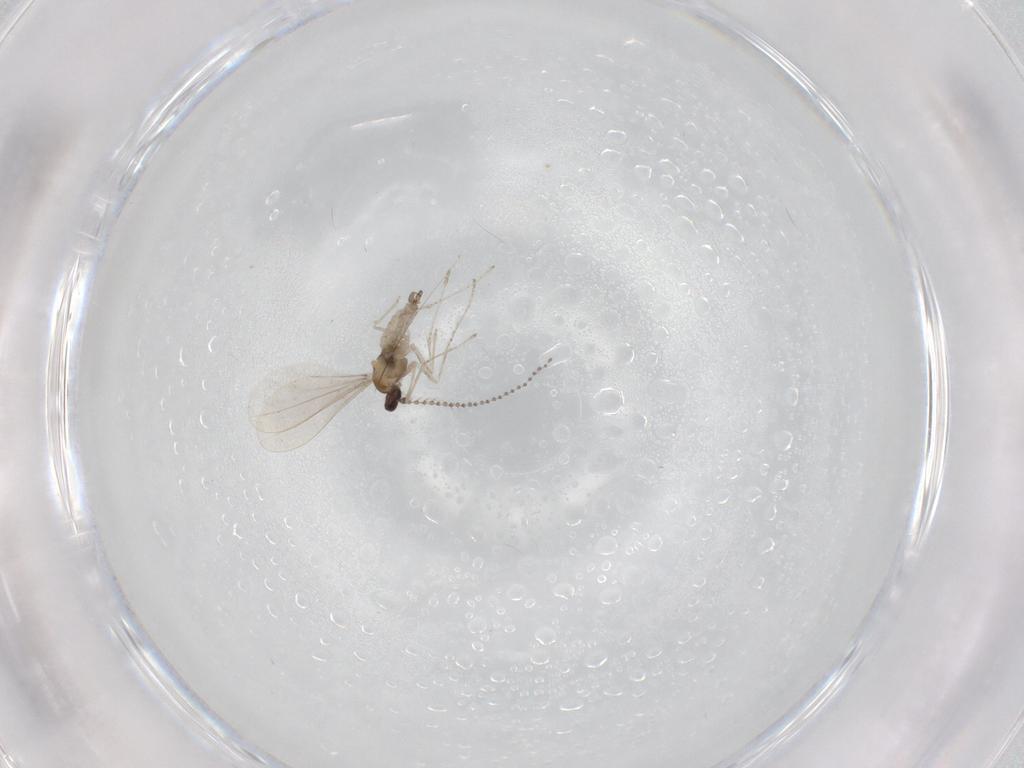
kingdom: Animalia
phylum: Arthropoda
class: Insecta
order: Diptera
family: Cecidomyiidae
